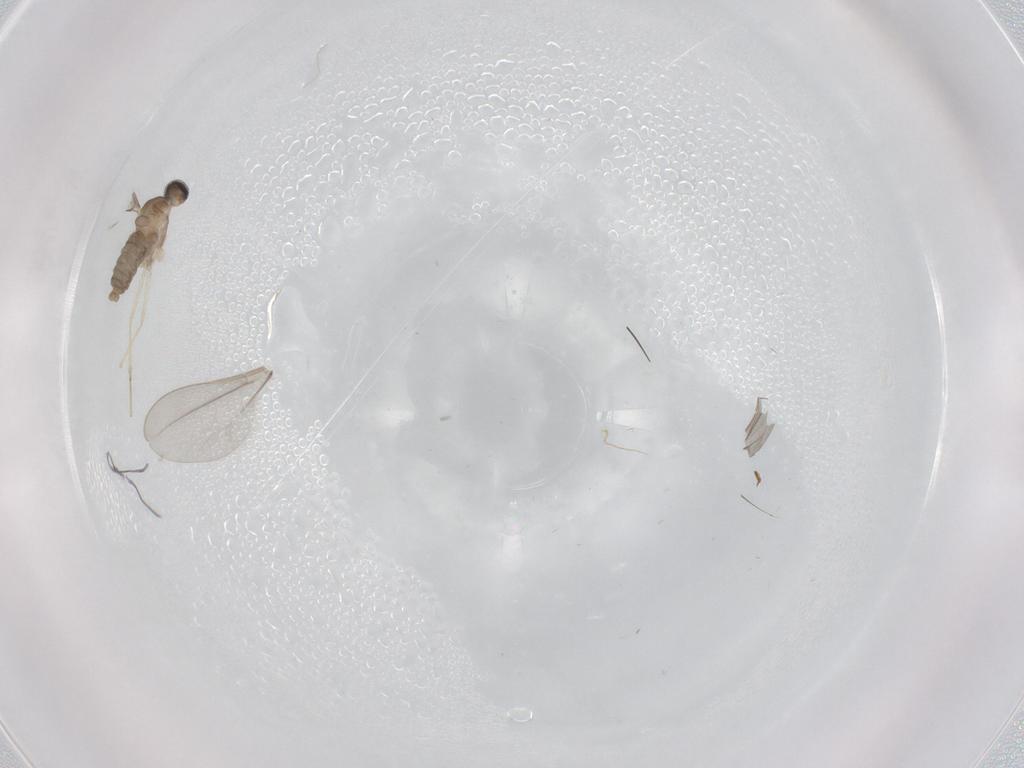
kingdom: Animalia
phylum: Arthropoda
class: Insecta
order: Diptera
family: Cecidomyiidae
